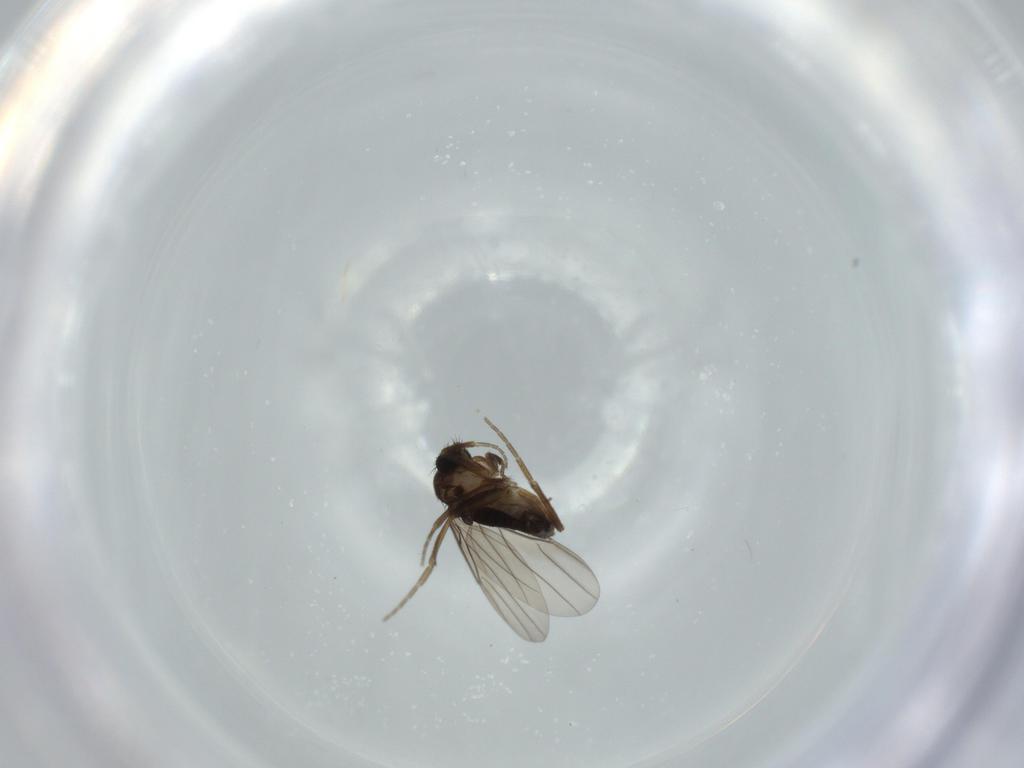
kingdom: Animalia
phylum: Arthropoda
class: Insecta
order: Diptera
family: Phoridae
